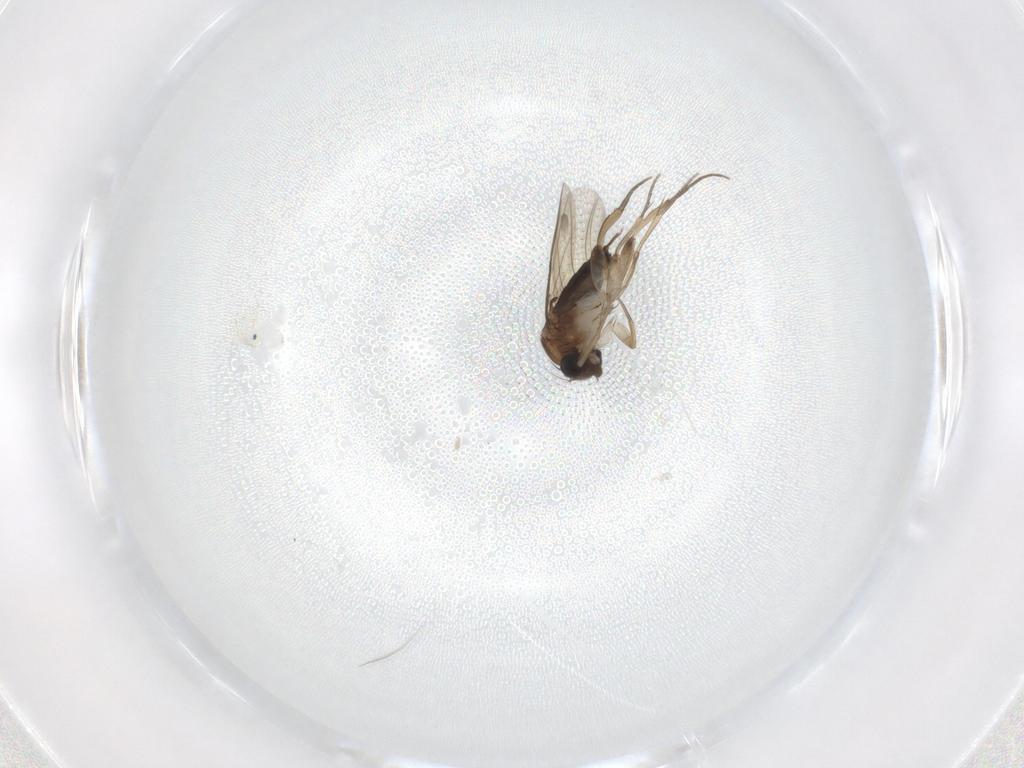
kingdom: Animalia
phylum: Arthropoda
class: Insecta
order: Diptera
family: Phoridae
